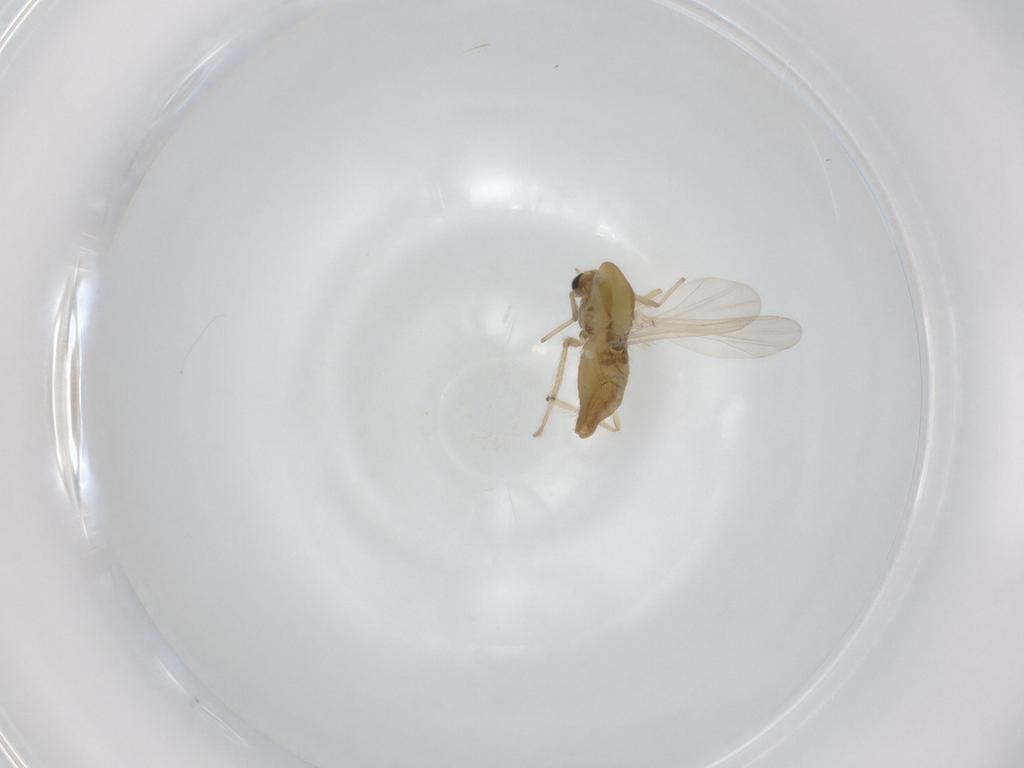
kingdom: Animalia
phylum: Arthropoda
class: Insecta
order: Diptera
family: Chironomidae
